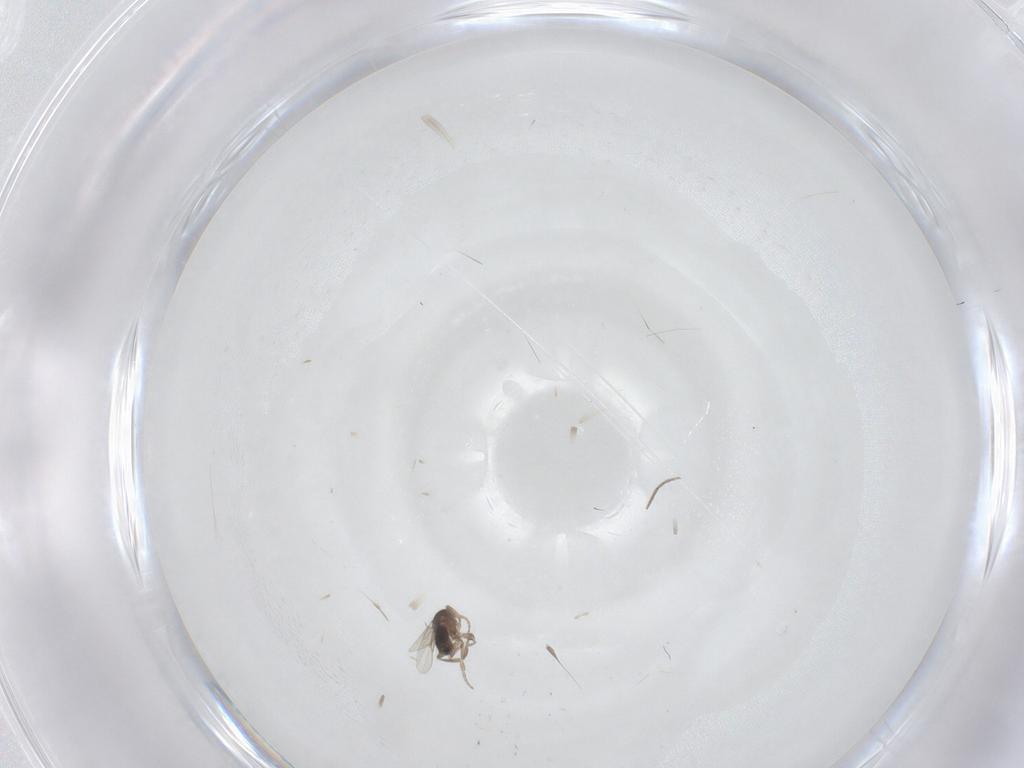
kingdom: Animalia
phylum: Arthropoda
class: Insecta
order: Diptera
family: Phoridae
